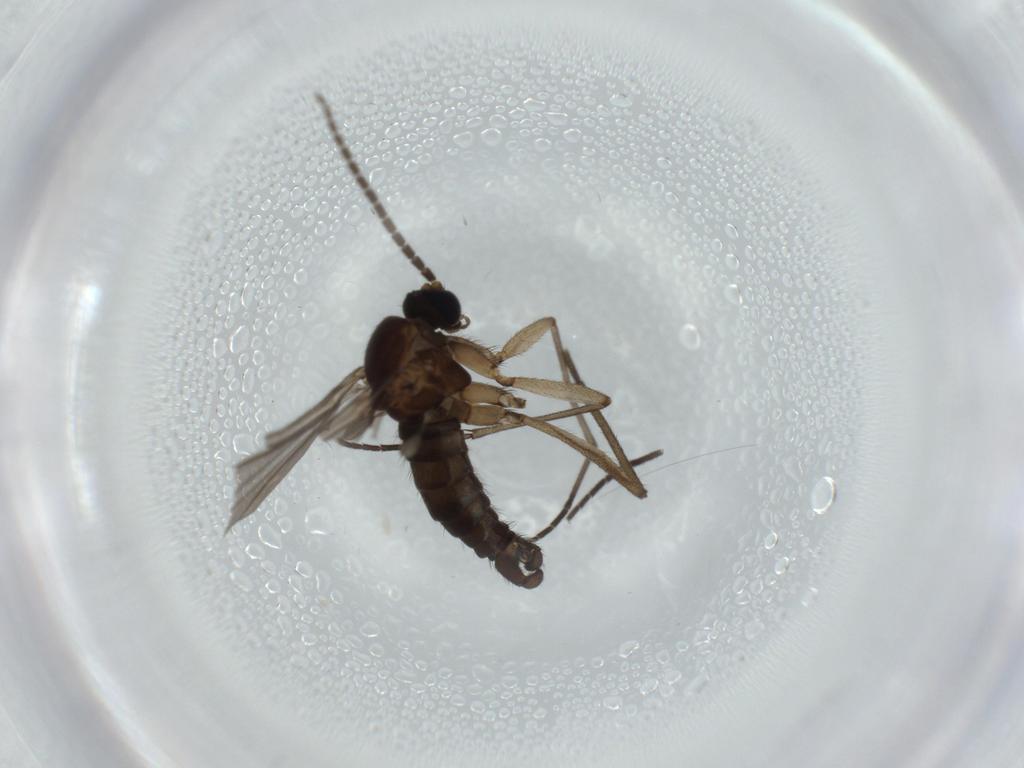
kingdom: Animalia
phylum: Arthropoda
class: Insecta
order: Diptera
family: Sciaridae
